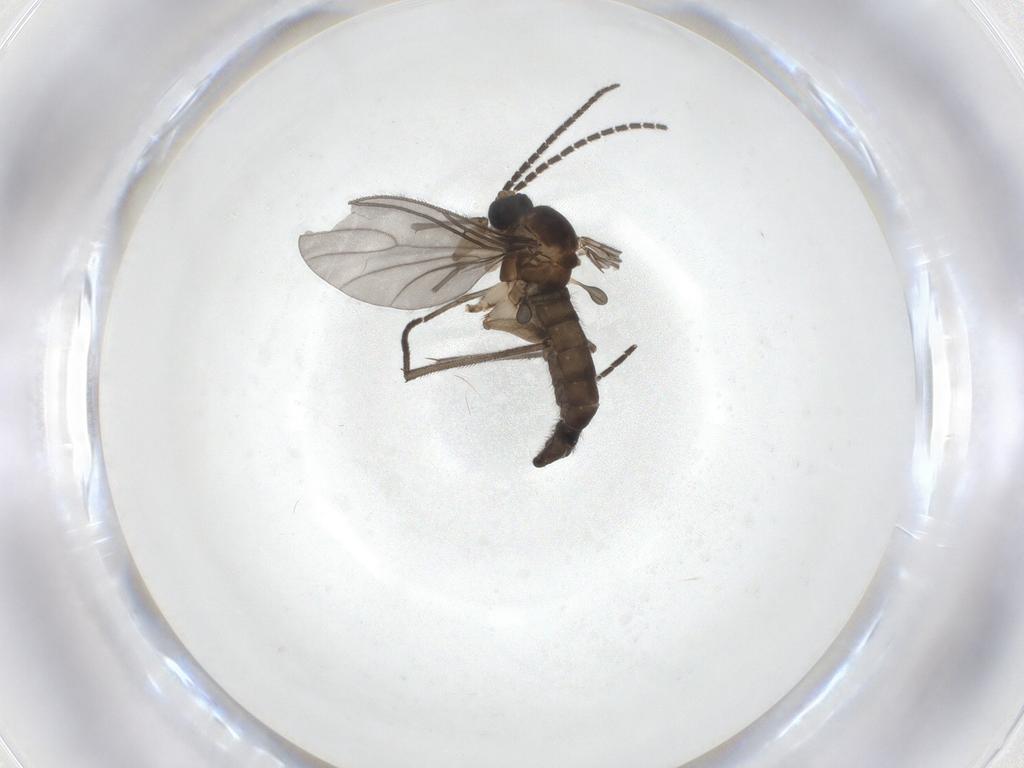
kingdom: Animalia
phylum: Arthropoda
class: Insecta
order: Diptera
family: Sciaridae
